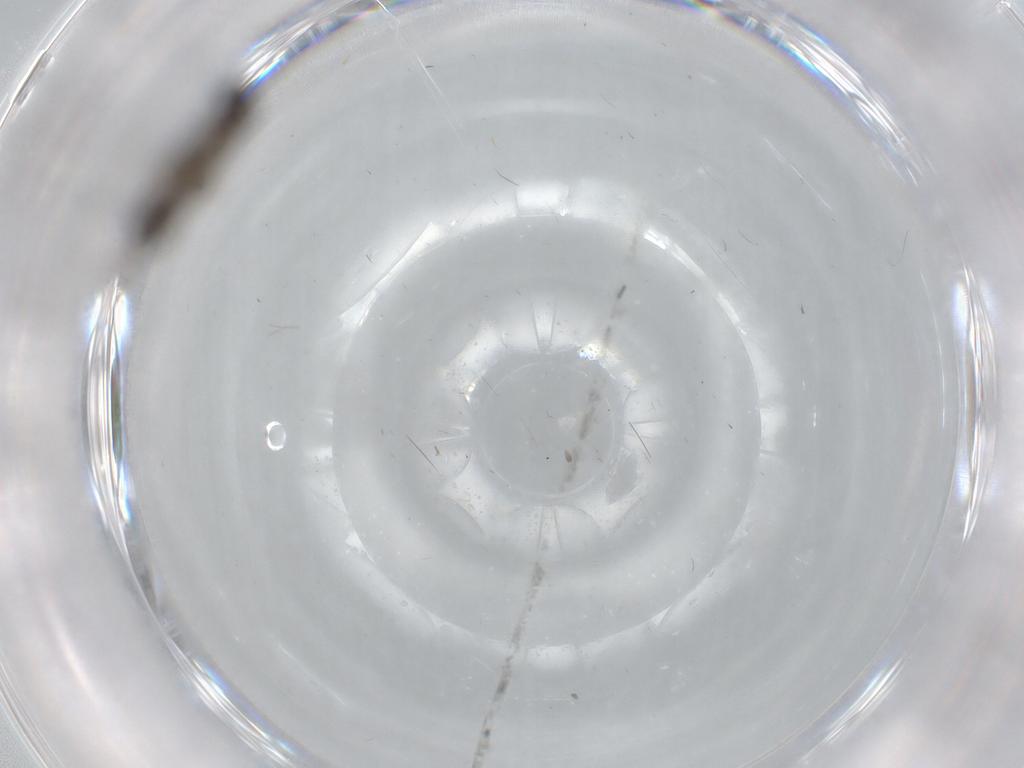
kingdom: Animalia
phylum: Arthropoda
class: Insecta
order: Diptera
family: Phoridae
